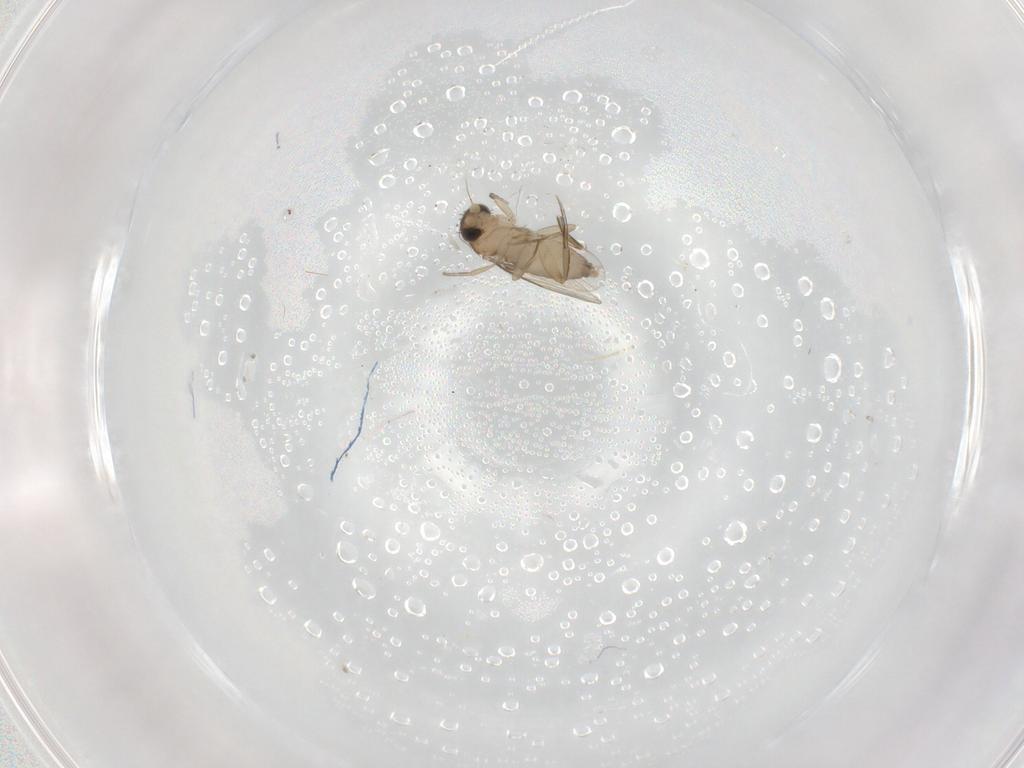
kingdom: Animalia
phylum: Arthropoda
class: Insecta
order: Diptera
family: Phoridae
